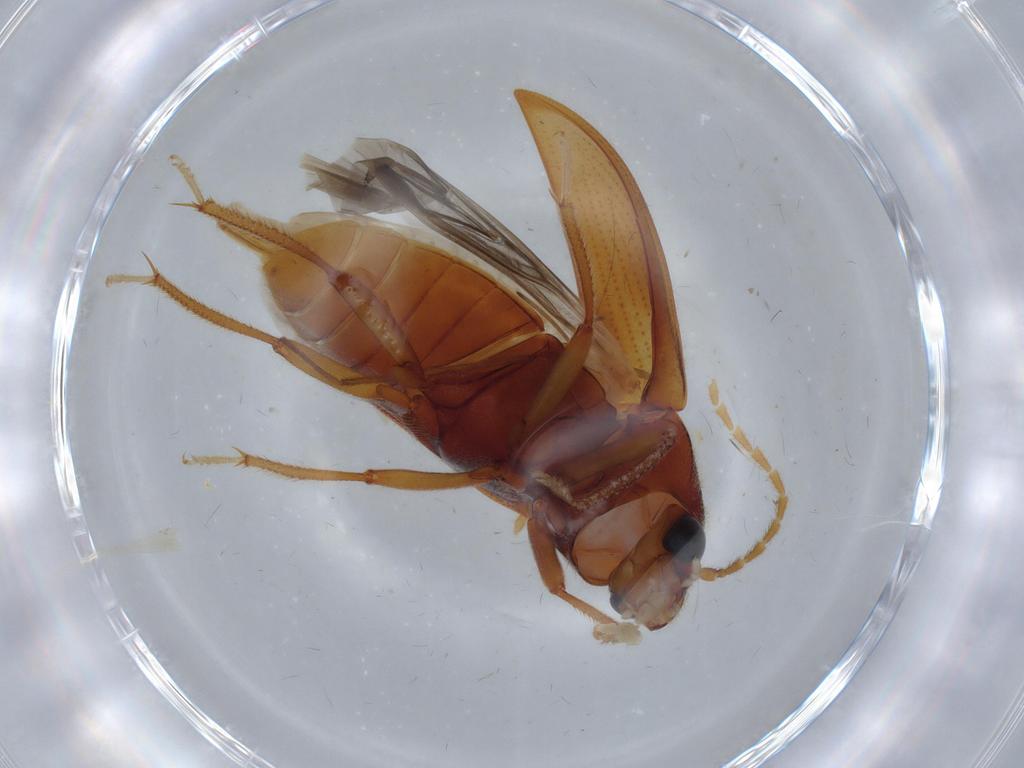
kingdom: Animalia
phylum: Arthropoda
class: Insecta
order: Coleoptera
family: Ptilodactylidae
